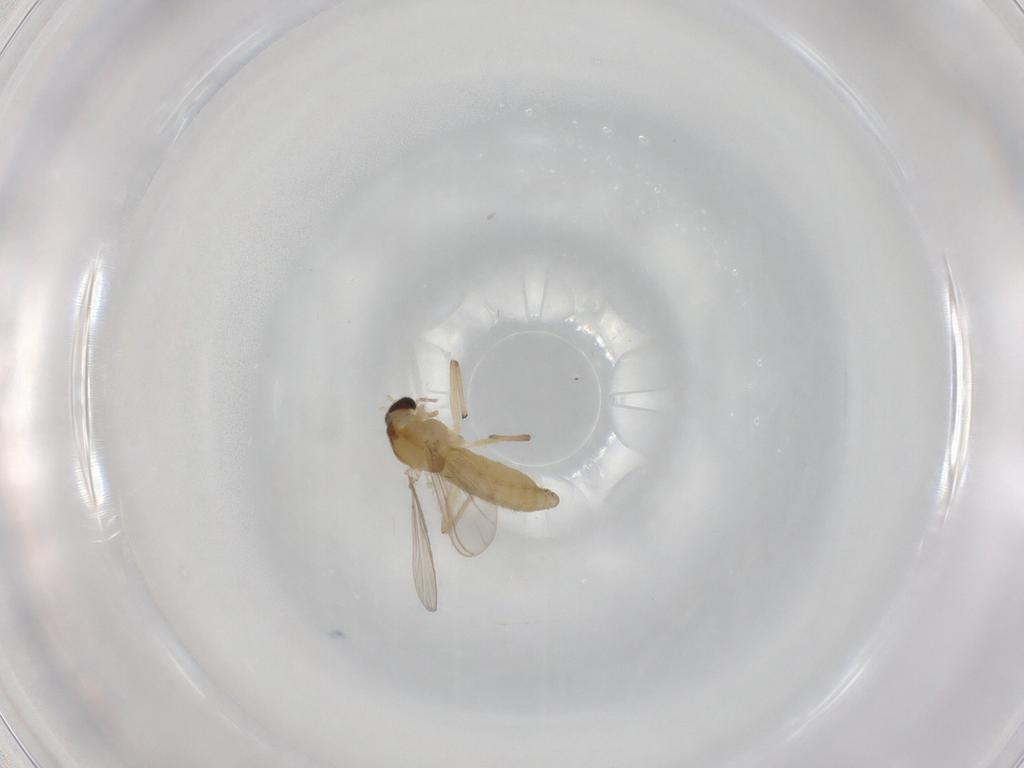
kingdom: Animalia
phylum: Arthropoda
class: Insecta
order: Diptera
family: Chironomidae
